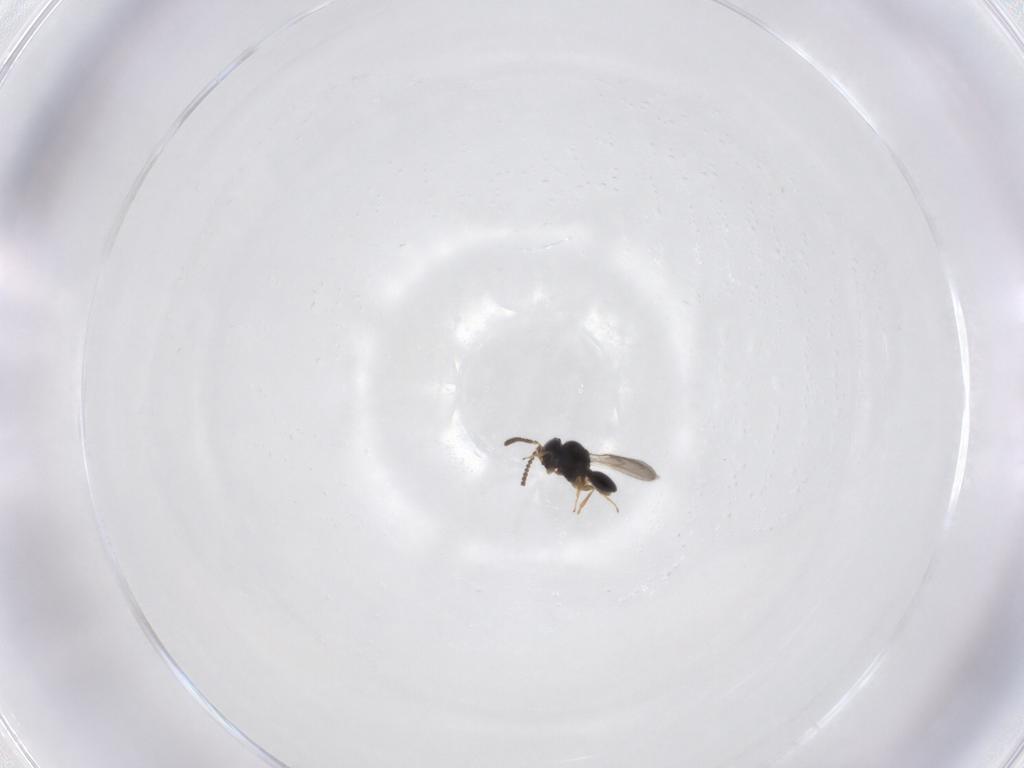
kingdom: Animalia
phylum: Arthropoda
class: Insecta
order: Hymenoptera
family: Scelionidae
